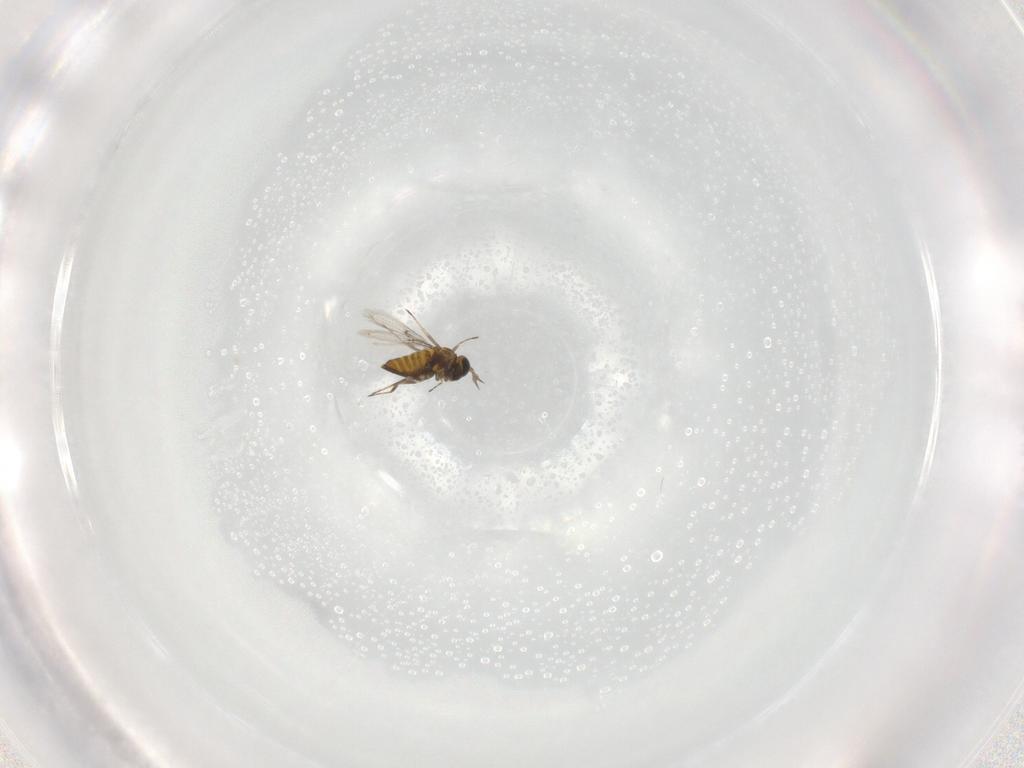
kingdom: Animalia
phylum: Arthropoda
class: Insecta
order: Hymenoptera
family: Trichogrammatidae
